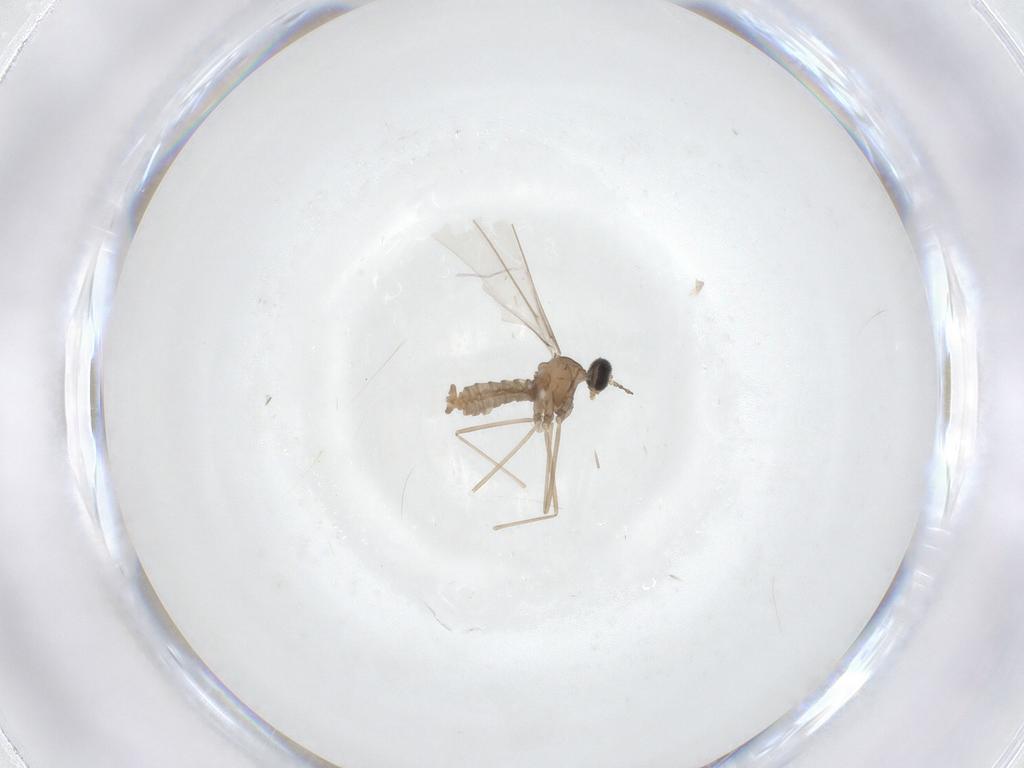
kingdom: Animalia
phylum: Arthropoda
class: Insecta
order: Diptera
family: Cecidomyiidae
